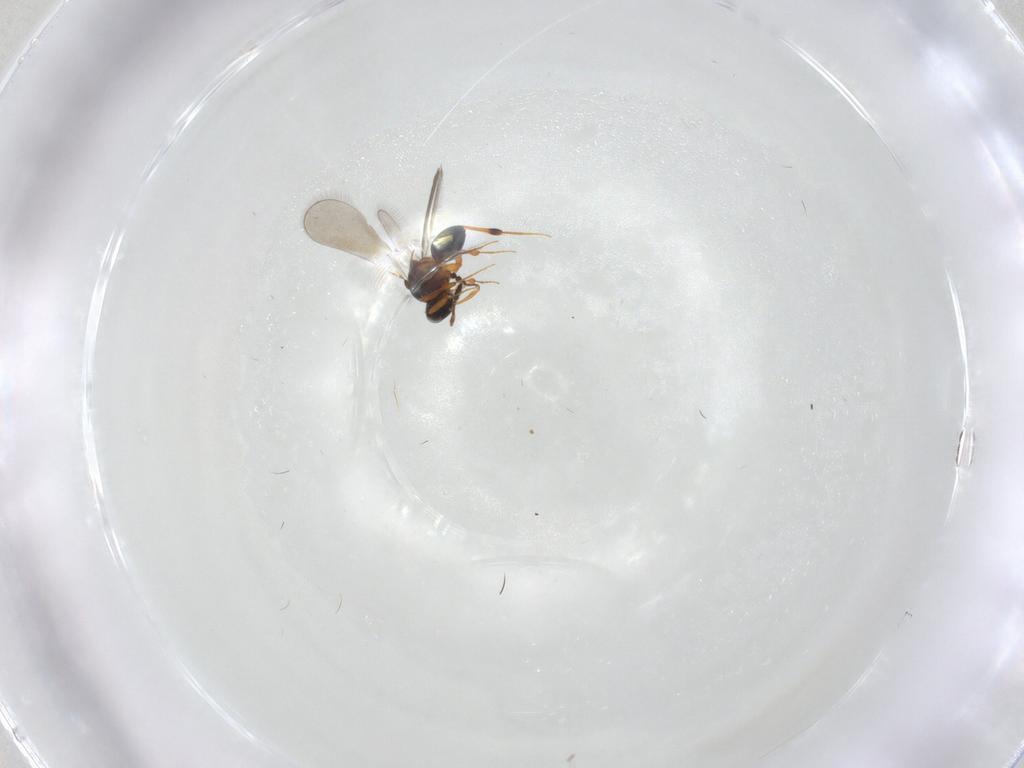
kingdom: Animalia
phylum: Arthropoda
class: Insecta
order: Hymenoptera
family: Platygastridae
